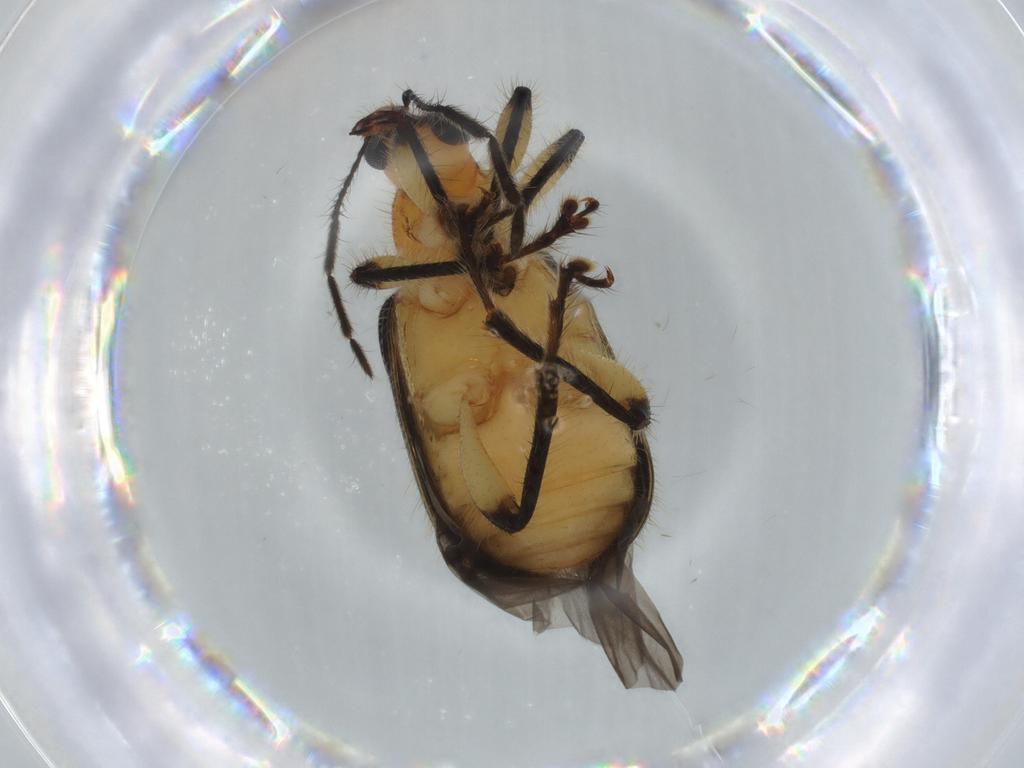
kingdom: Animalia
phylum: Arthropoda
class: Insecta
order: Coleoptera
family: Attelabidae
